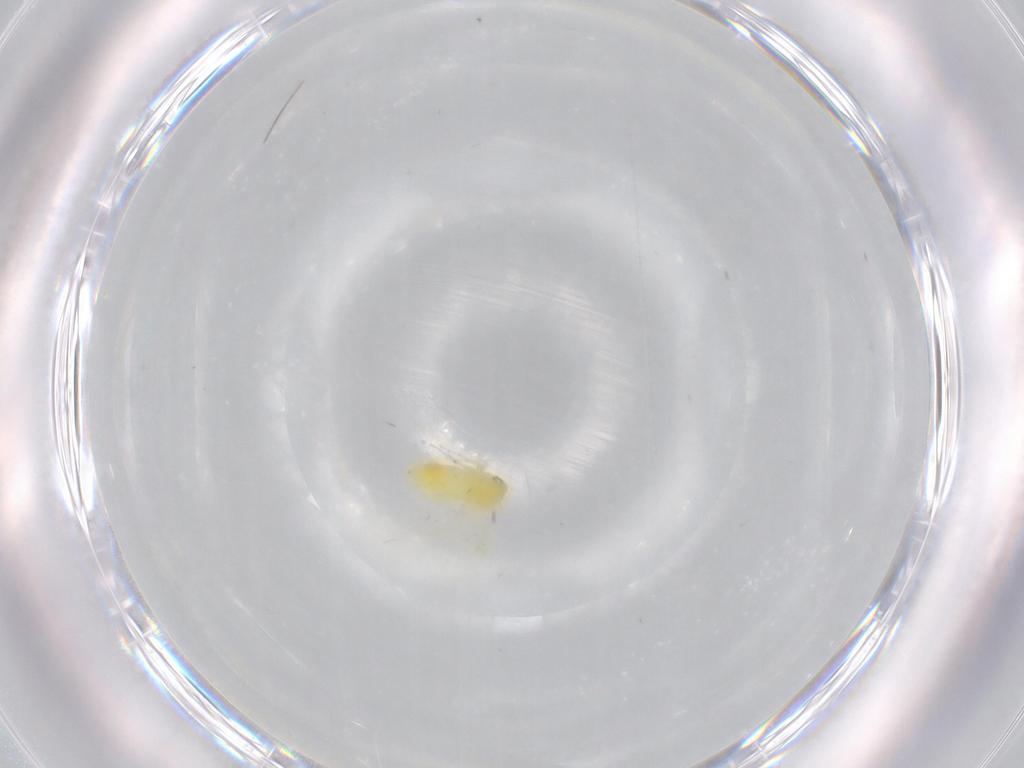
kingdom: Animalia
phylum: Arthropoda
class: Insecta
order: Hemiptera
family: Aleyrodidae
